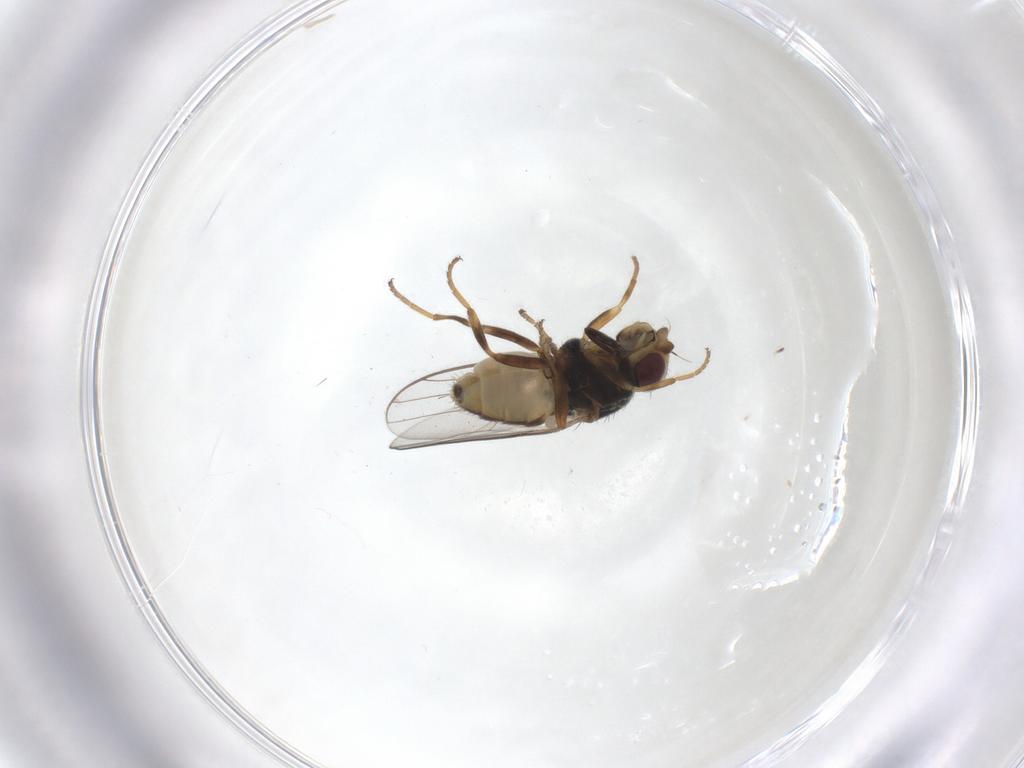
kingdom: Animalia
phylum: Arthropoda
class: Insecta
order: Diptera
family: Chloropidae
